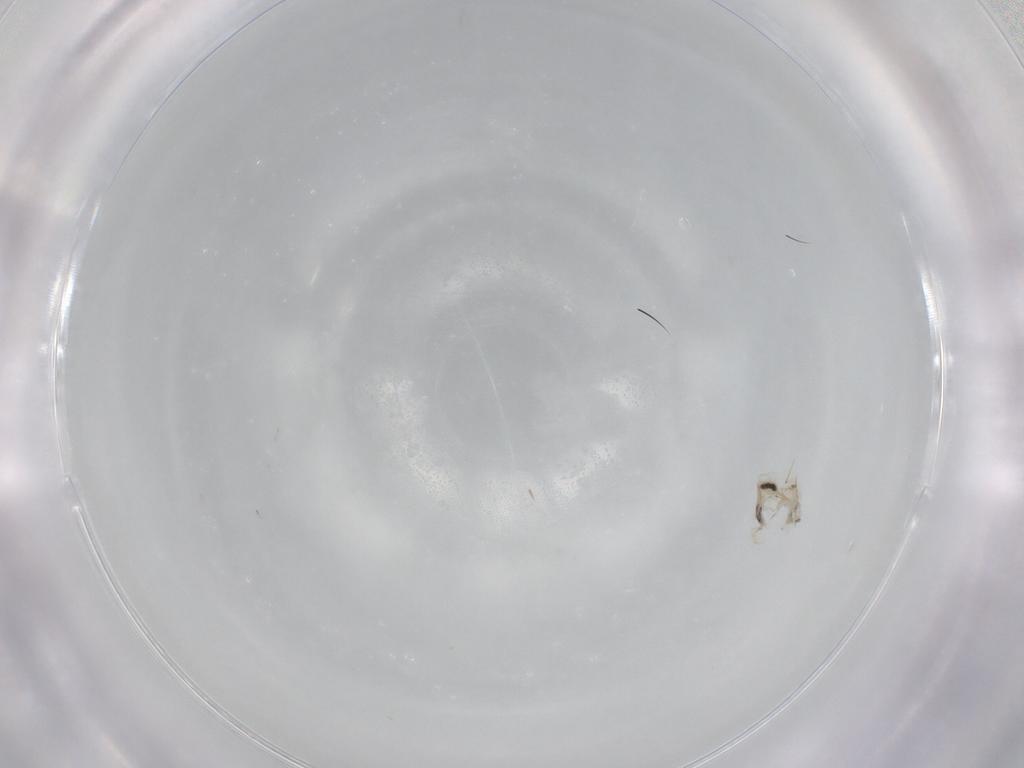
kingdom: Animalia
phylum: Arthropoda
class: Collembola
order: Entomobryomorpha
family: Entomobryidae
